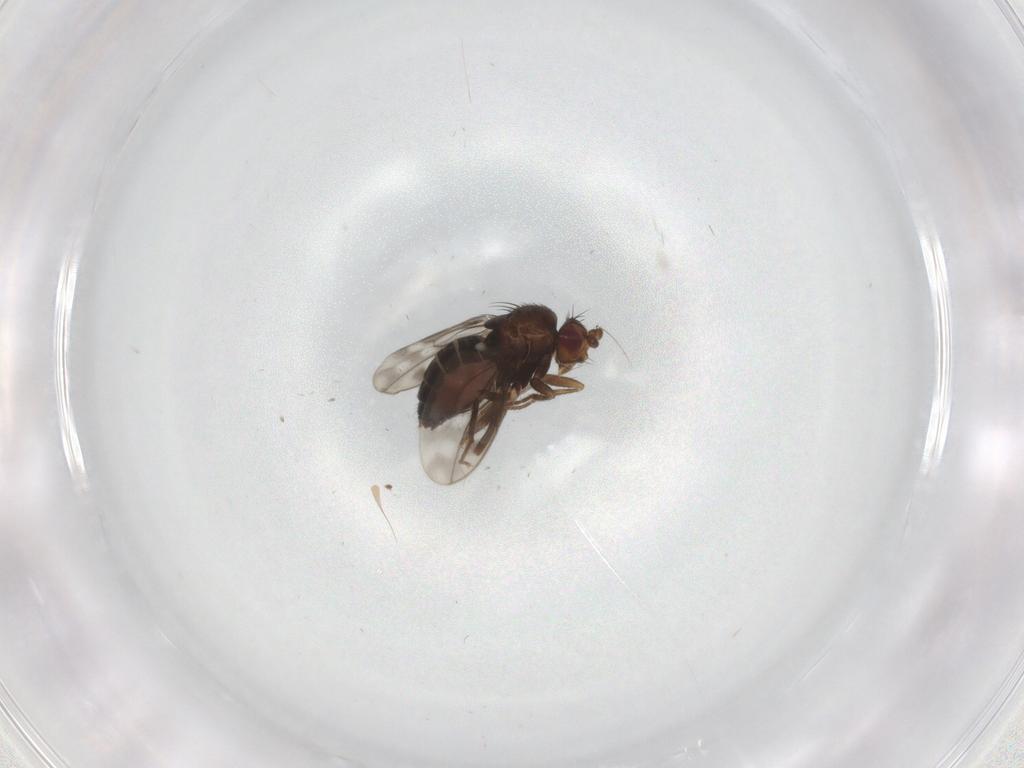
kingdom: Animalia
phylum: Arthropoda
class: Insecta
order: Diptera
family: Sphaeroceridae
